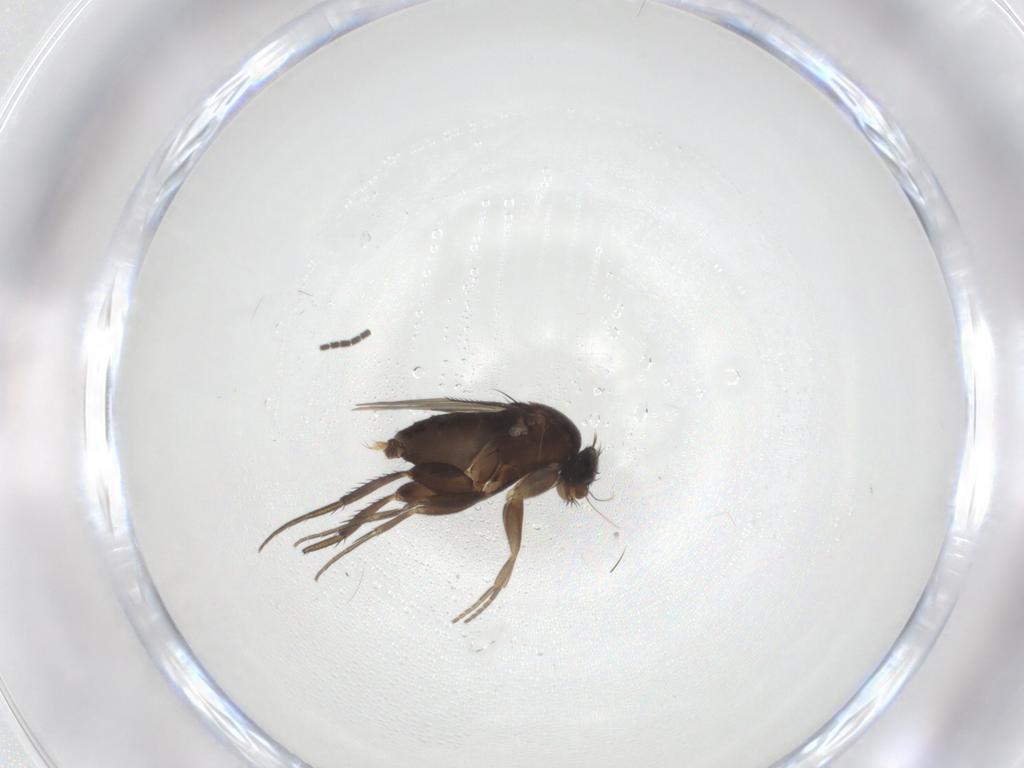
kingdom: Animalia
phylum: Arthropoda
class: Insecta
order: Diptera
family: Phoridae
